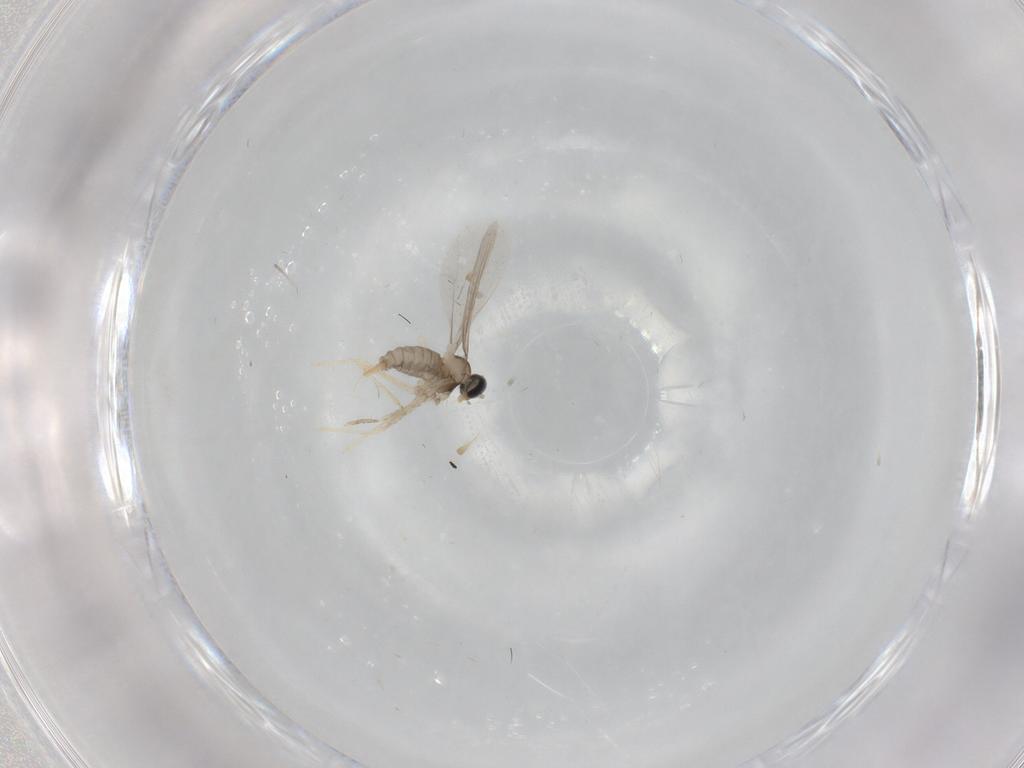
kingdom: Animalia
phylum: Arthropoda
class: Insecta
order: Diptera
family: Cecidomyiidae
